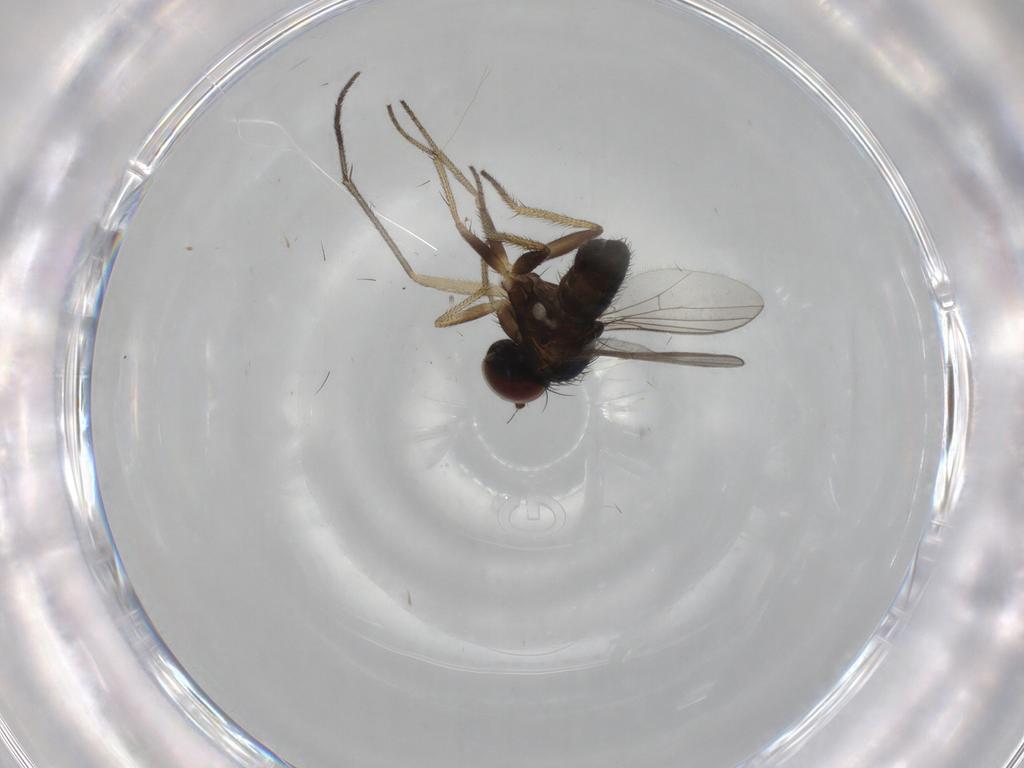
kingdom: Animalia
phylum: Arthropoda
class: Insecta
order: Diptera
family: Sciaridae
